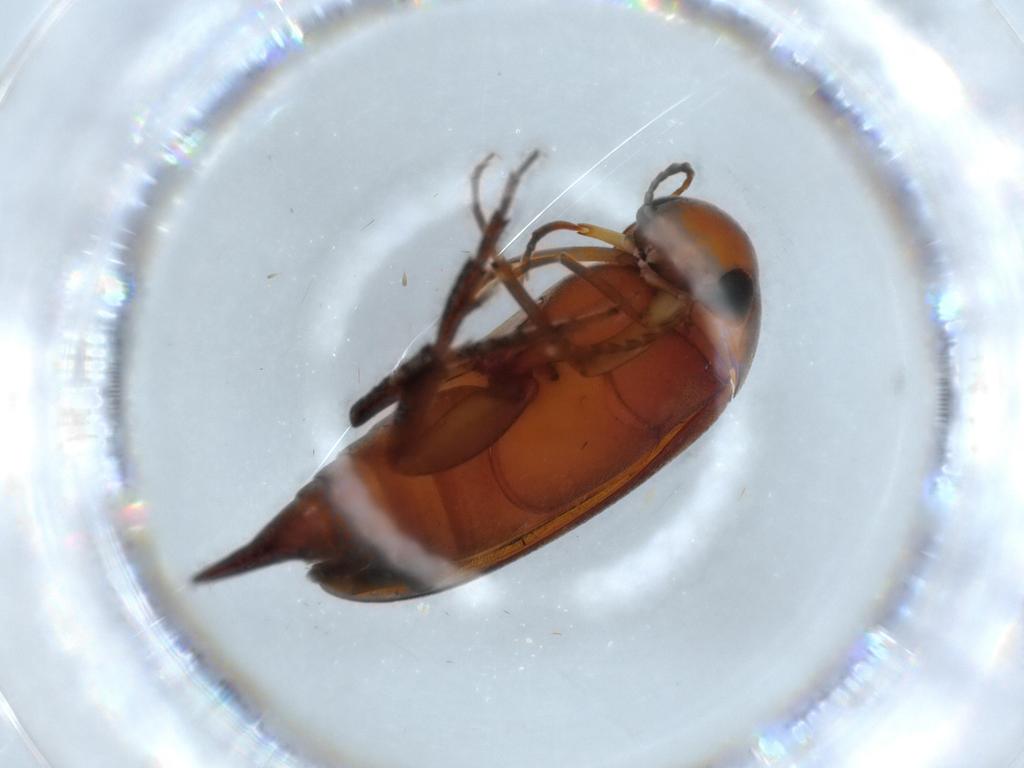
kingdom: Animalia
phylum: Arthropoda
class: Insecta
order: Coleoptera
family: Mordellidae
